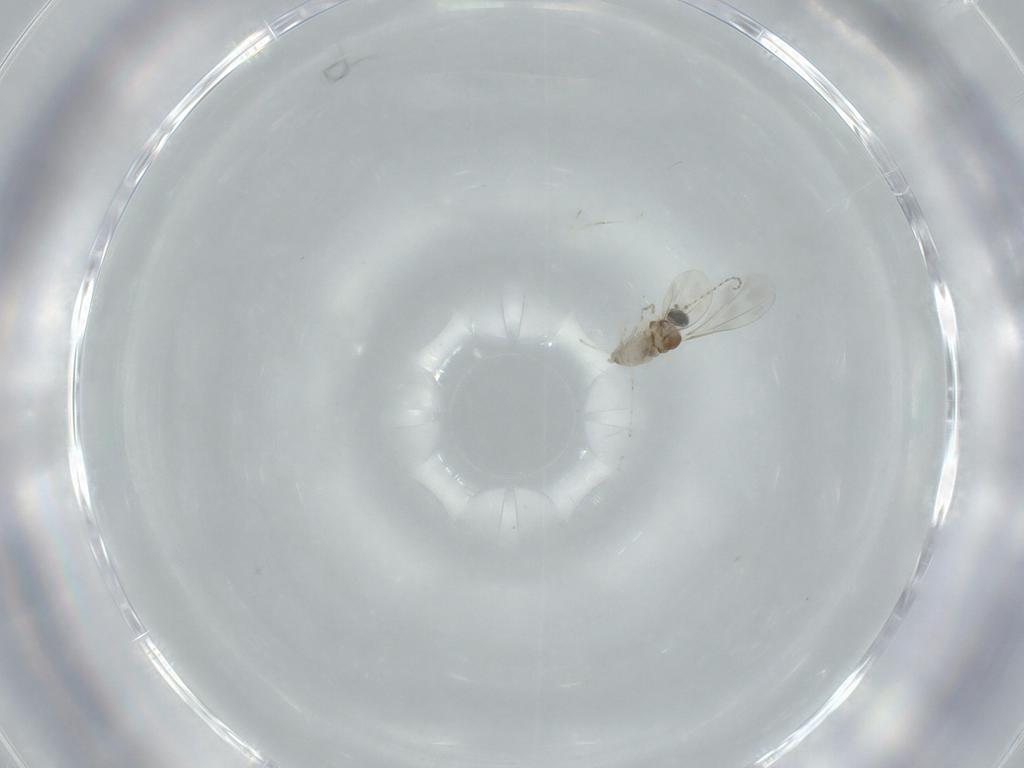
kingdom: Animalia
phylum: Arthropoda
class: Insecta
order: Diptera
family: Cecidomyiidae
